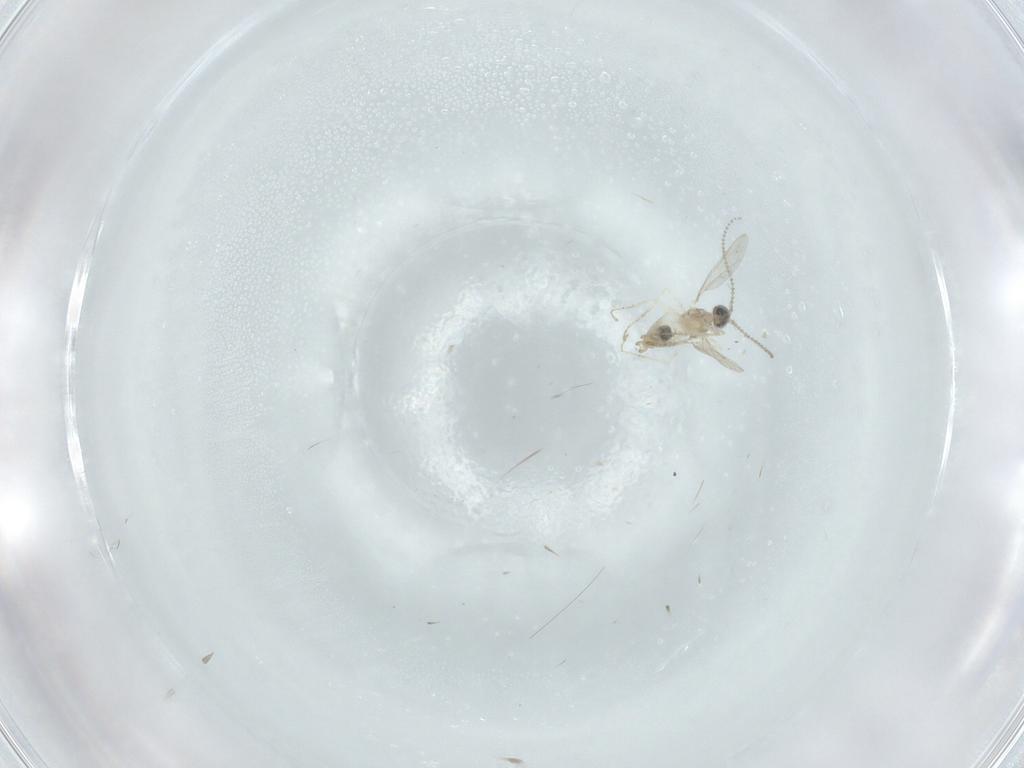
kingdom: Animalia
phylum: Arthropoda
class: Insecta
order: Diptera
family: Cecidomyiidae
